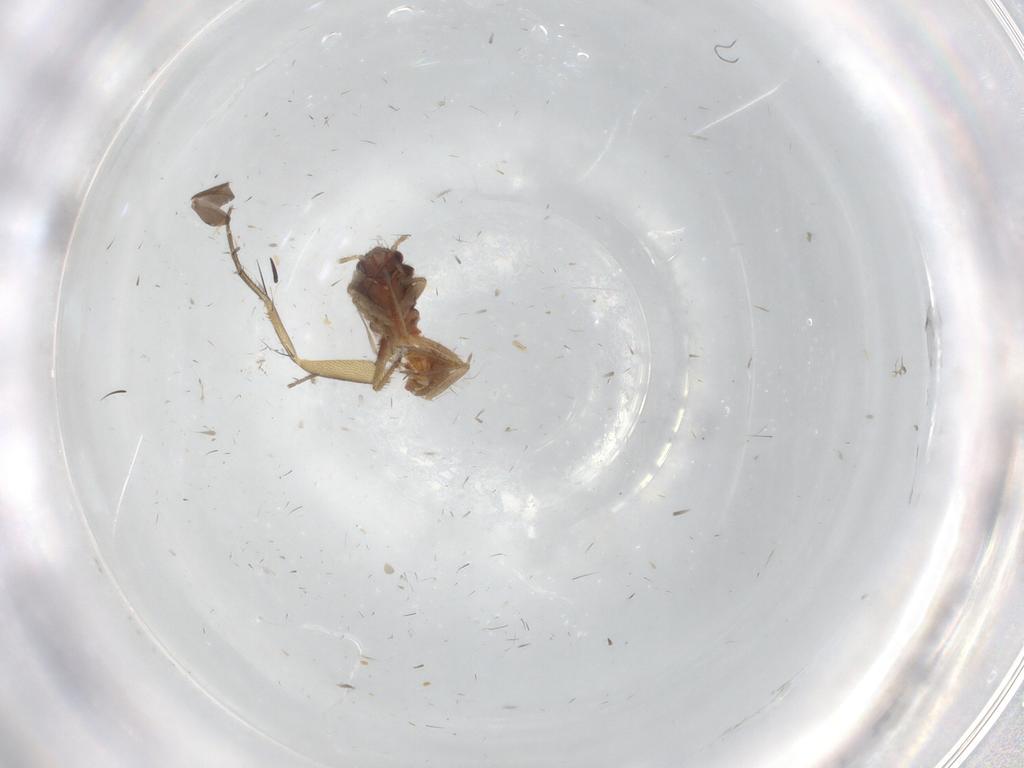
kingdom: Animalia
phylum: Arthropoda
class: Insecta
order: Hemiptera
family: Ceratocombidae
